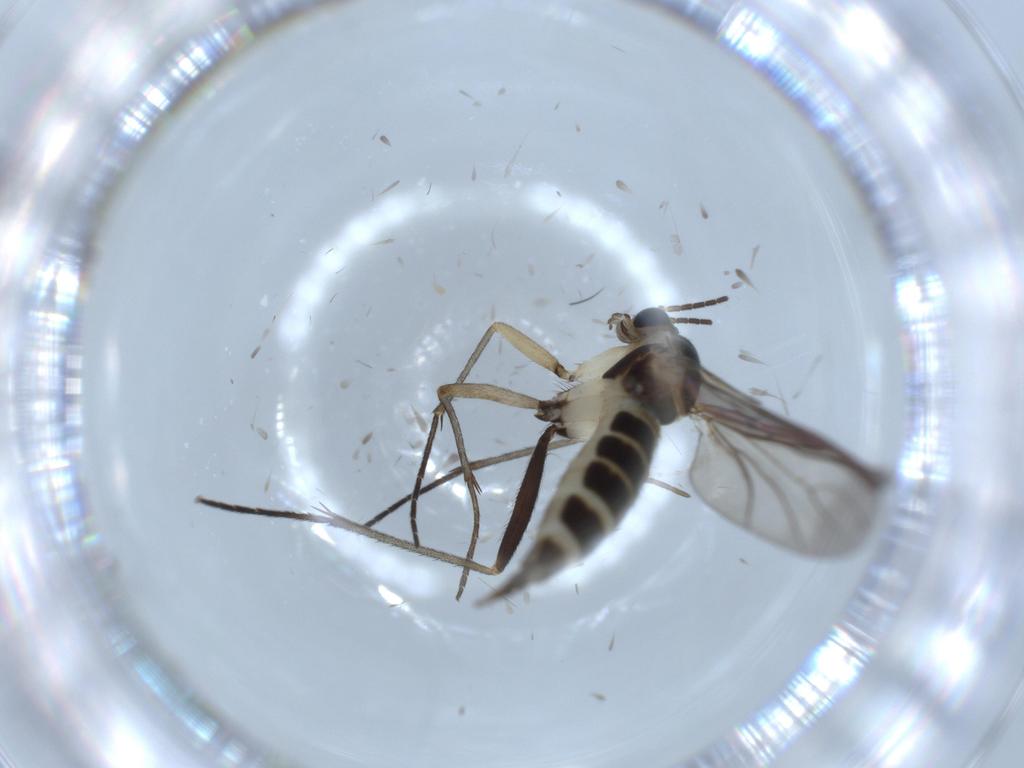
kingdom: Animalia
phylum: Arthropoda
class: Insecta
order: Diptera
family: Sciaridae
